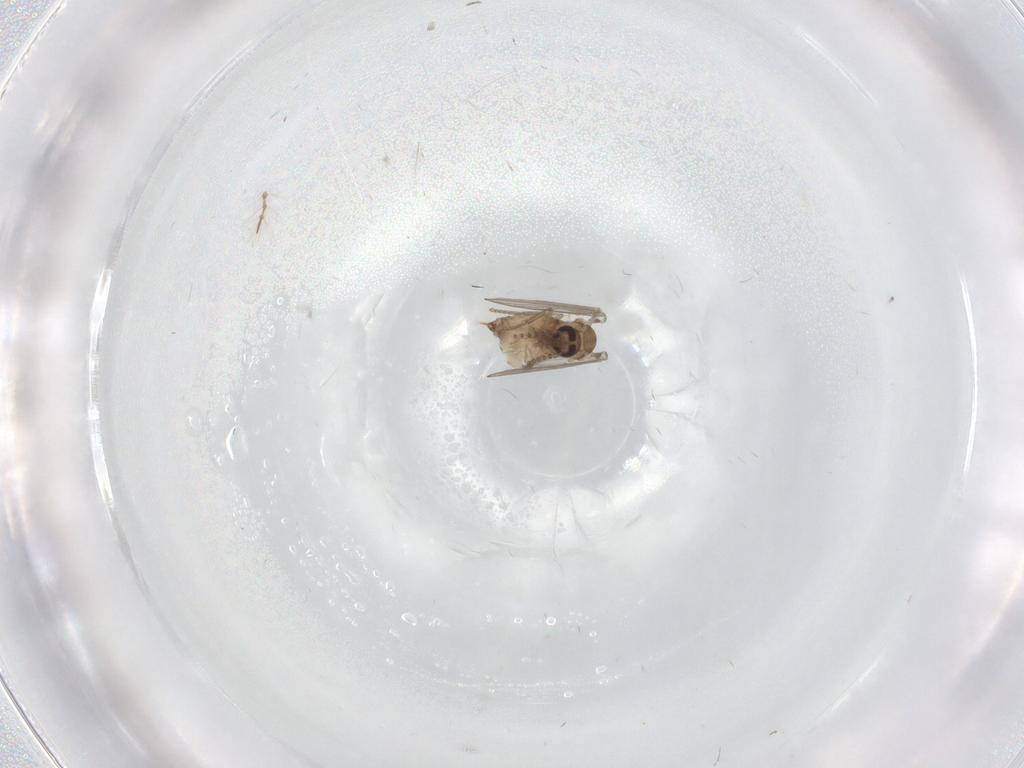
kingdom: Animalia
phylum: Arthropoda
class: Insecta
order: Diptera
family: Psychodidae
